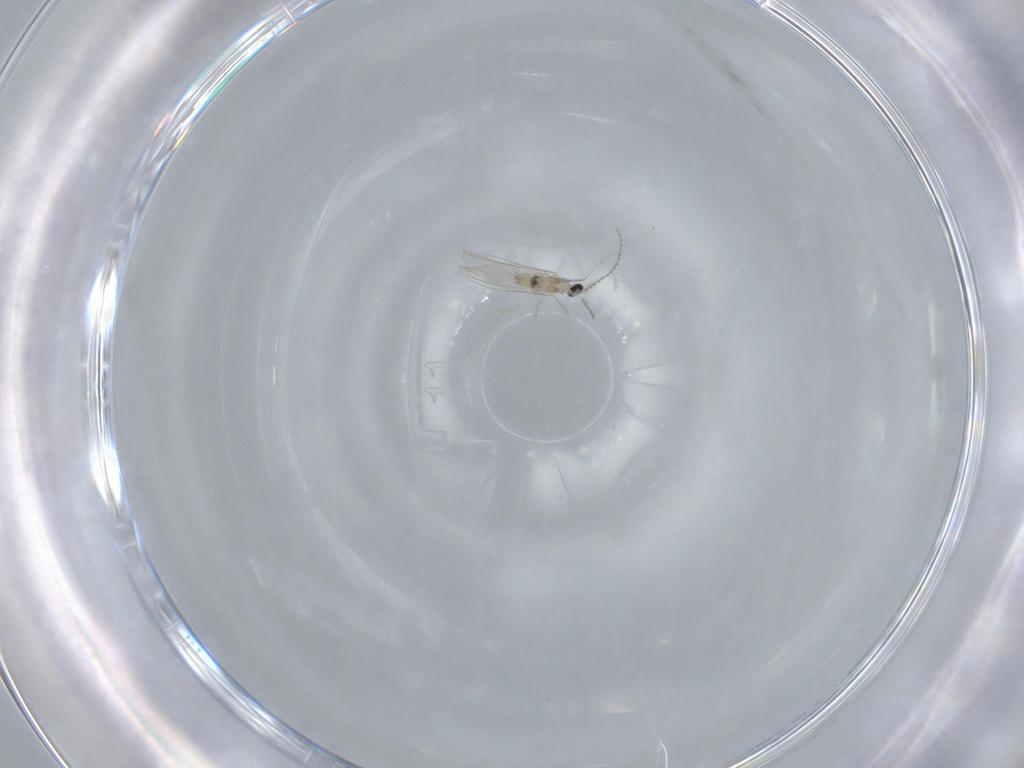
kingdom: Animalia
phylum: Arthropoda
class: Insecta
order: Diptera
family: Cecidomyiidae
